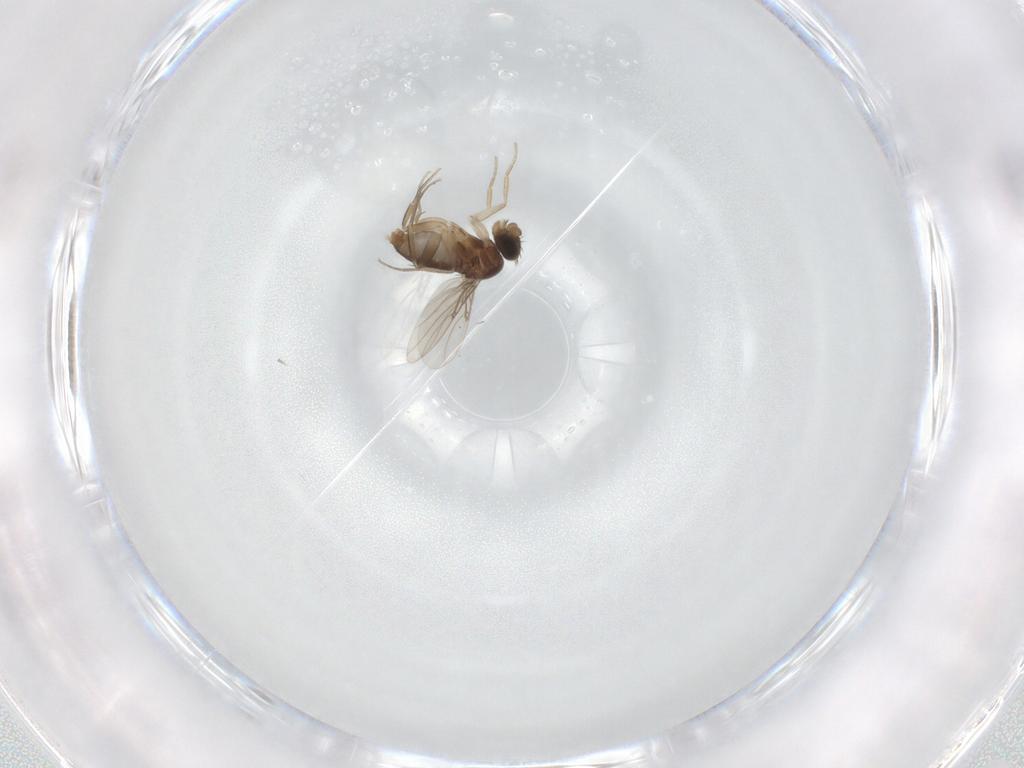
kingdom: Animalia
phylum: Arthropoda
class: Insecta
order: Diptera
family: Phoridae
